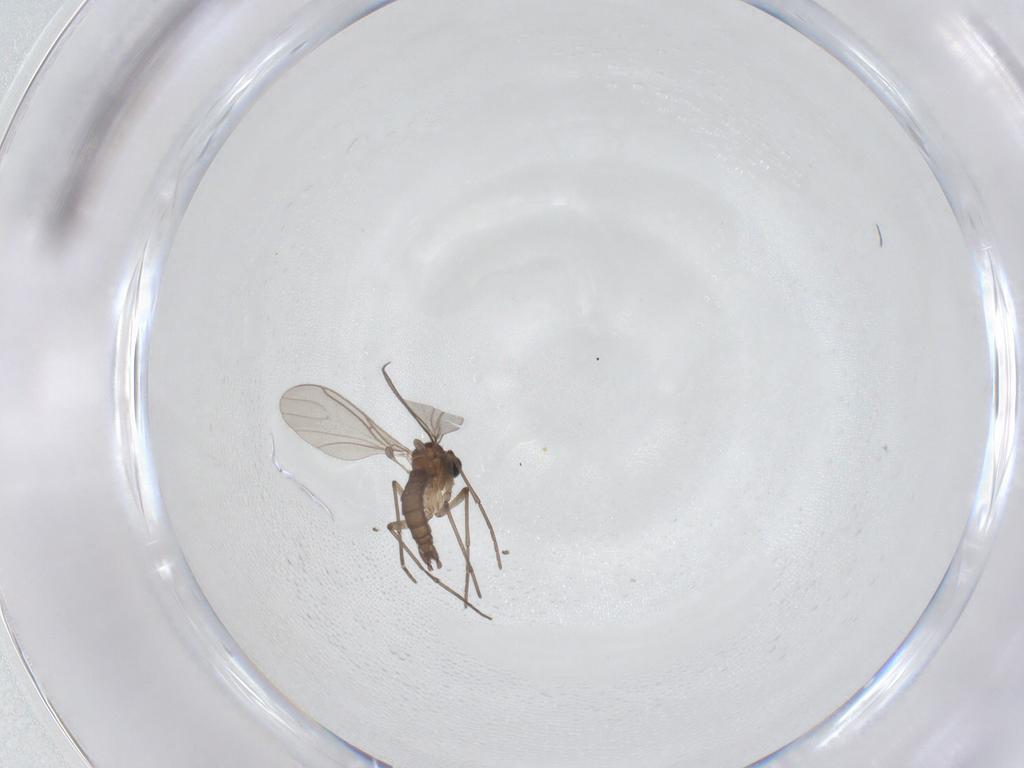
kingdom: Animalia
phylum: Arthropoda
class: Insecta
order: Diptera
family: Sciaridae
